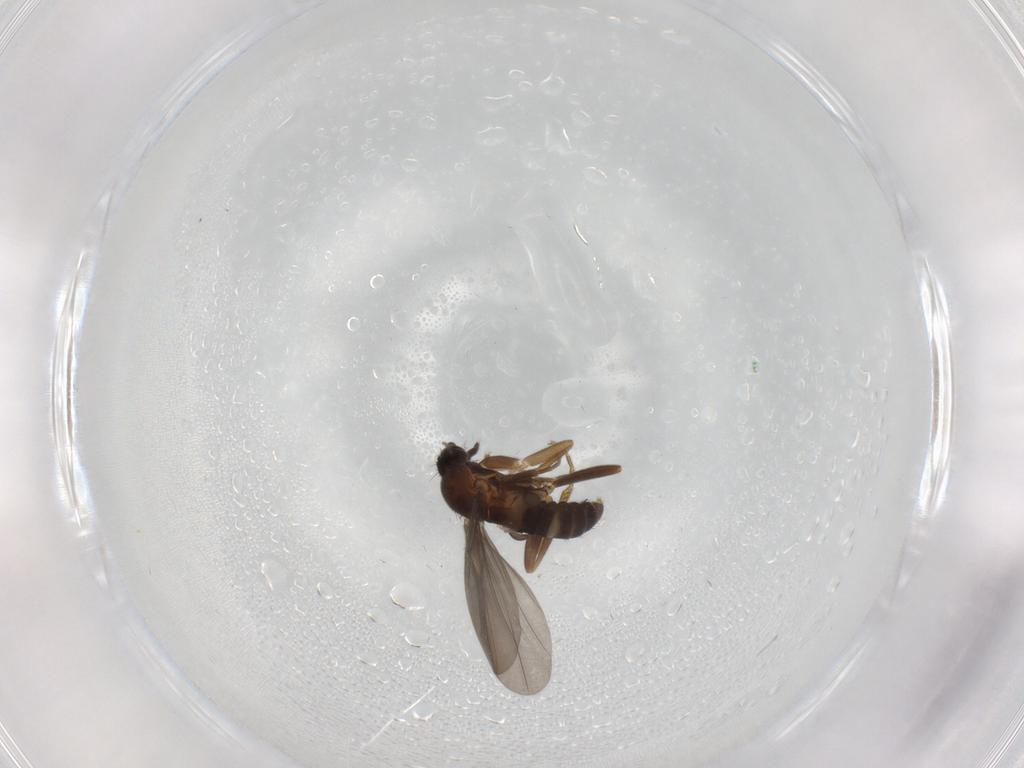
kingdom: Animalia
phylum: Arthropoda
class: Insecta
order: Diptera
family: Phoridae
